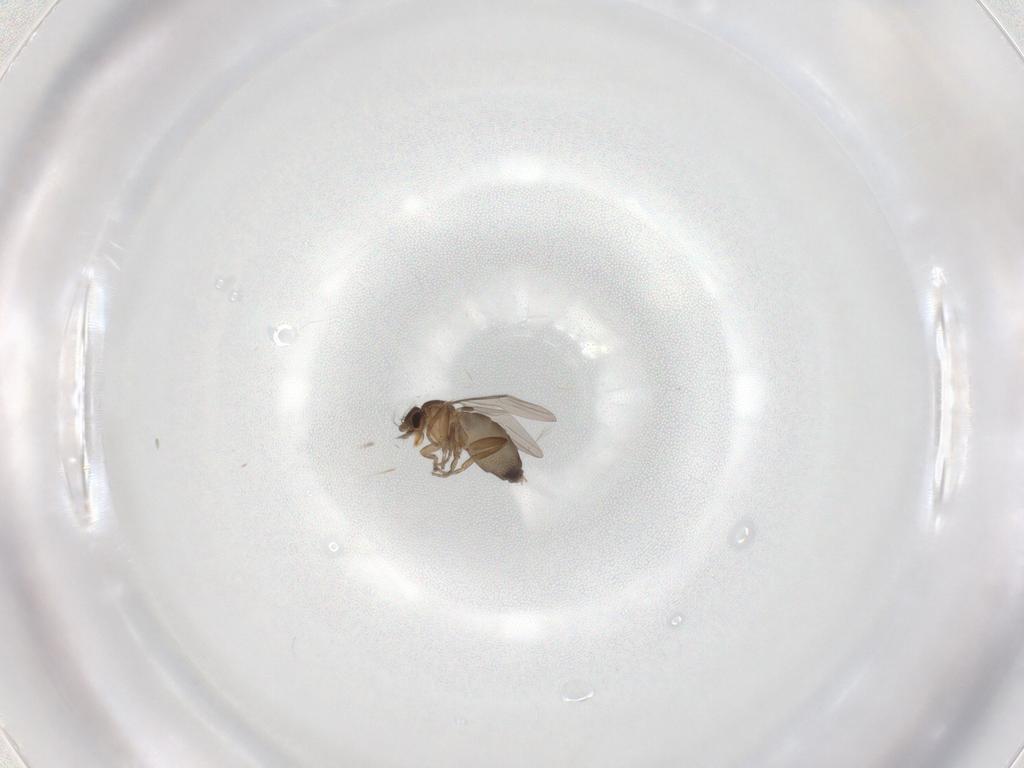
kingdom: Animalia
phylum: Arthropoda
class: Insecta
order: Diptera
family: Phoridae
